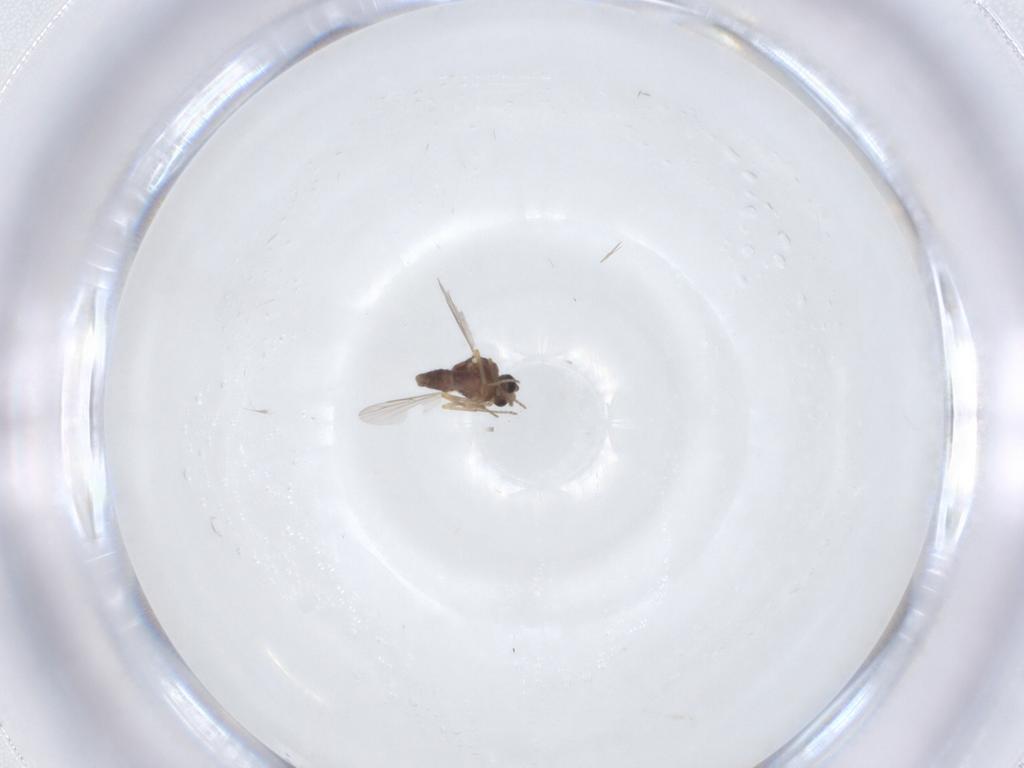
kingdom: Animalia
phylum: Arthropoda
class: Insecta
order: Diptera
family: Ceratopogonidae
